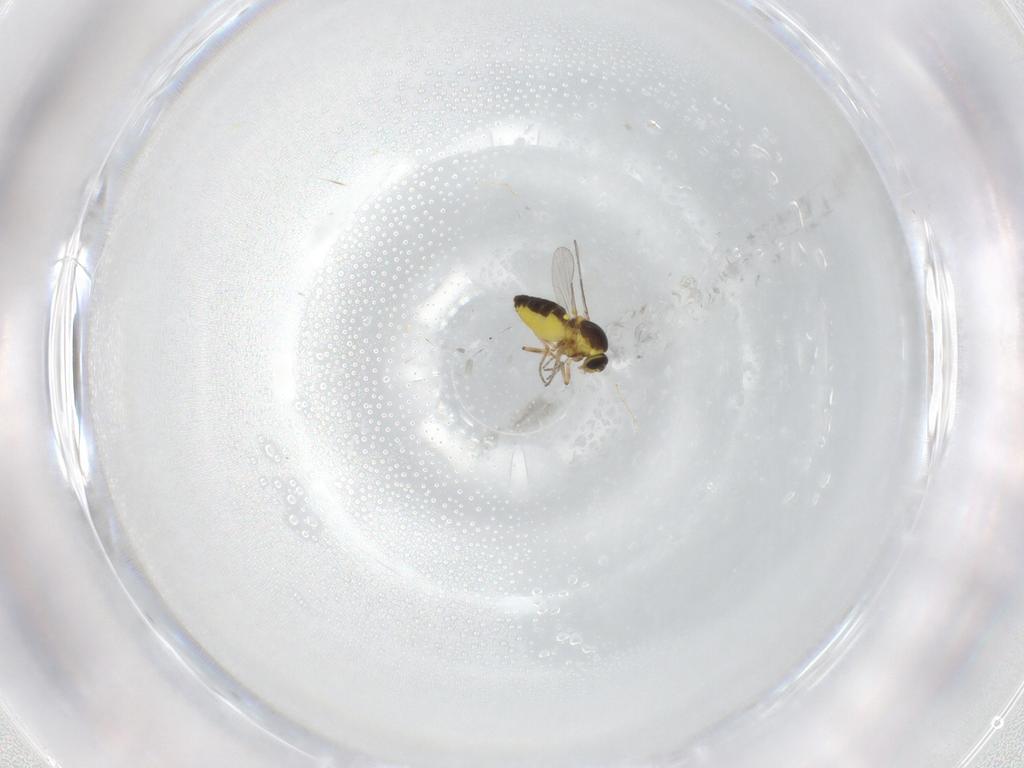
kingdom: Animalia
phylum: Arthropoda
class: Insecta
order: Diptera
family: Ceratopogonidae
